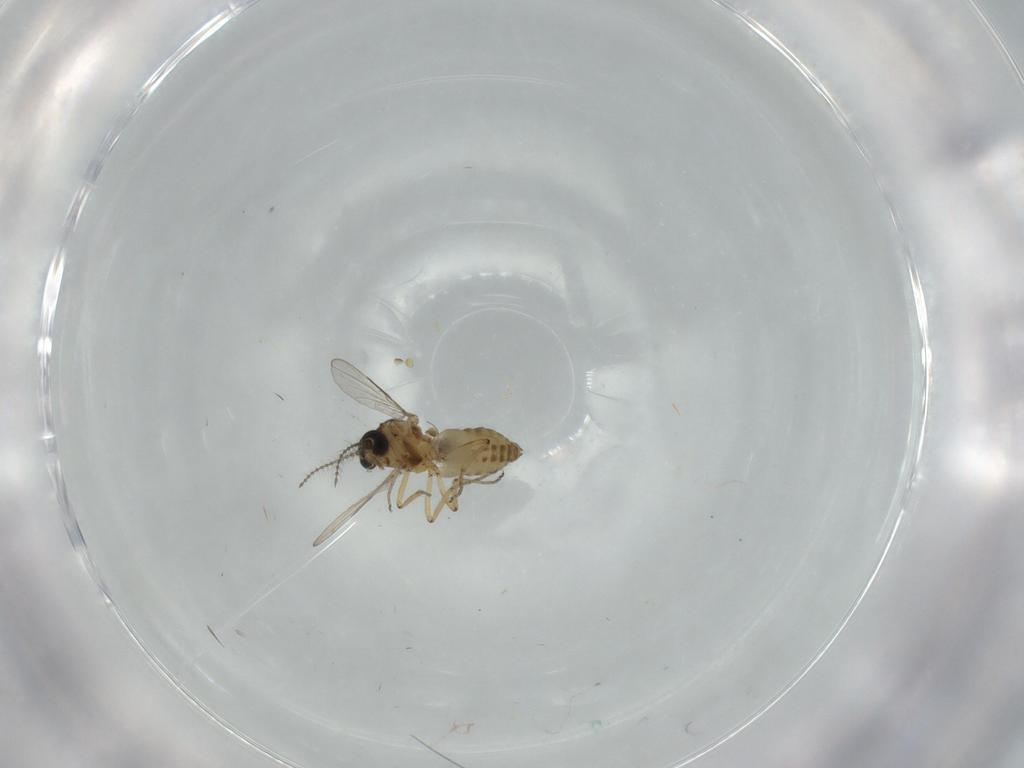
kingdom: Animalia
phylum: Arthropoda
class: Insecta
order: Diptera
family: Ceratopogonidae
